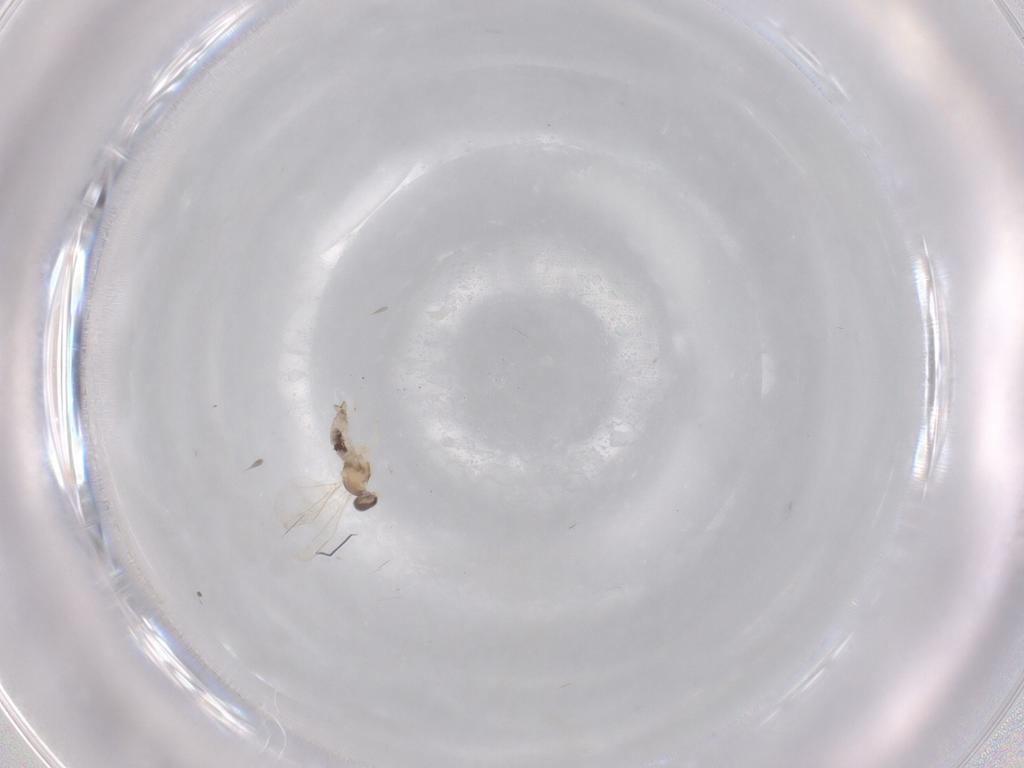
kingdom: Animalia
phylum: Arthropoda
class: Insecta
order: Diptera
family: Cecidomyiidae
